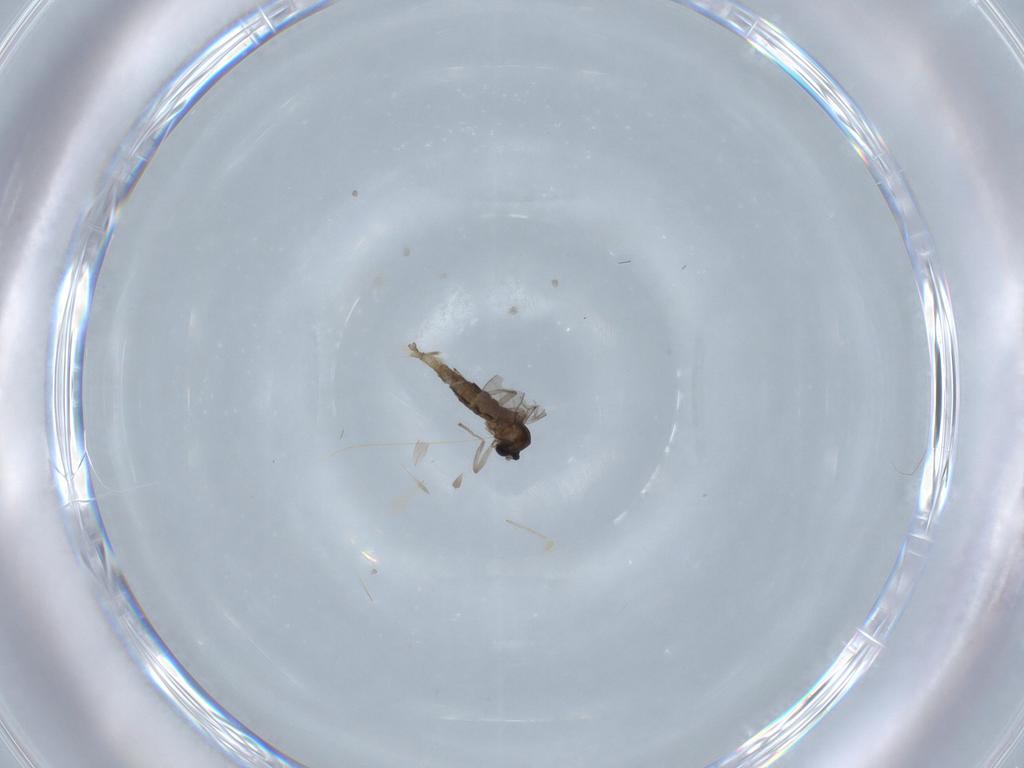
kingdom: Animalia
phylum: Arthropoda
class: Insecta
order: Diptera
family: Cecidomyiidae
